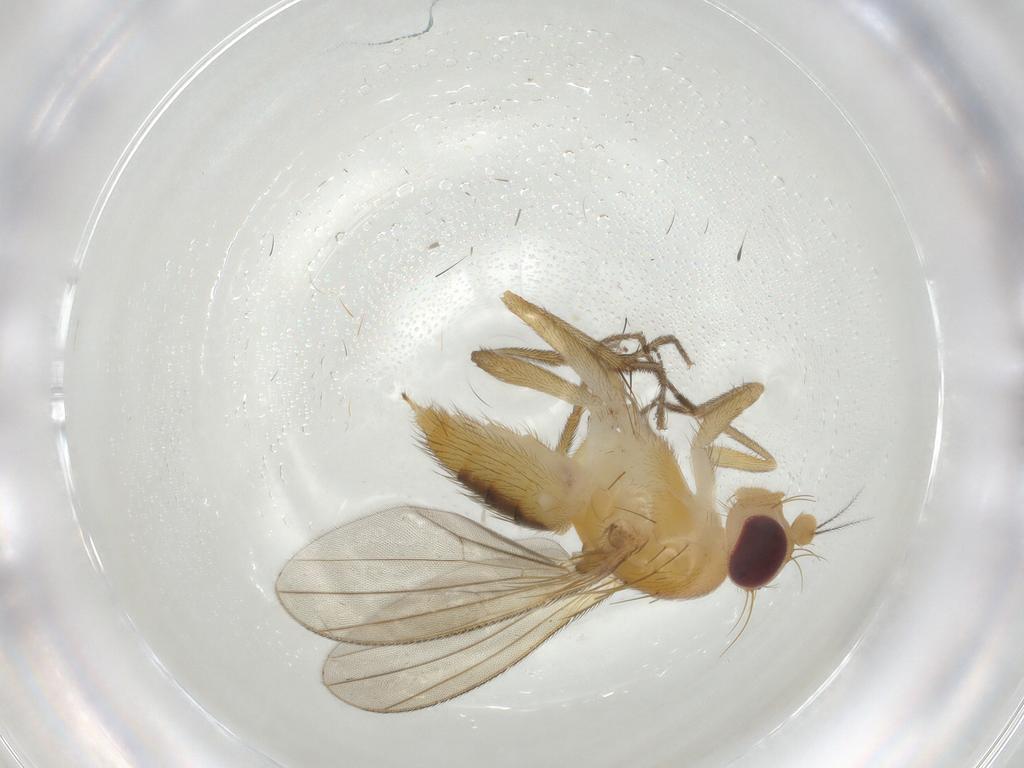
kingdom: Animalia
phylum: Arthropoda
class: Insecta
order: Diptera
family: Clusiidae
